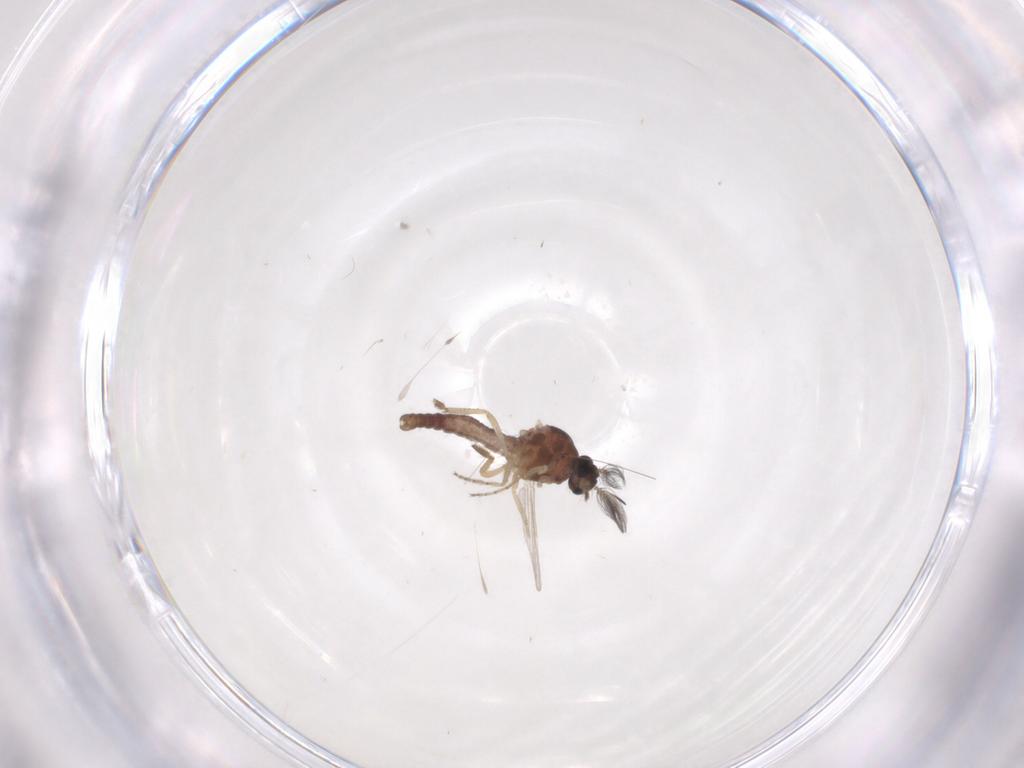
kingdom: Animalia
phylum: Arthropoda
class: Insecta
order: Diptera
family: Ceratopogonidae
